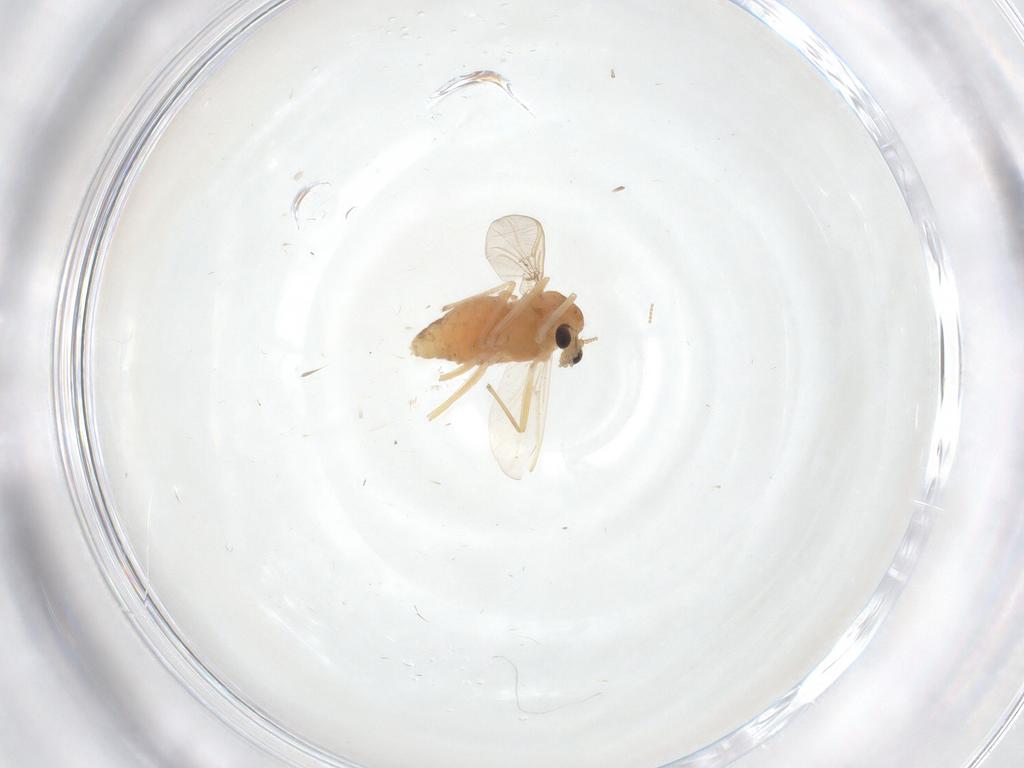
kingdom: Animalia
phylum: Arthropoda
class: Insecta
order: Diptera
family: Chironomidae
